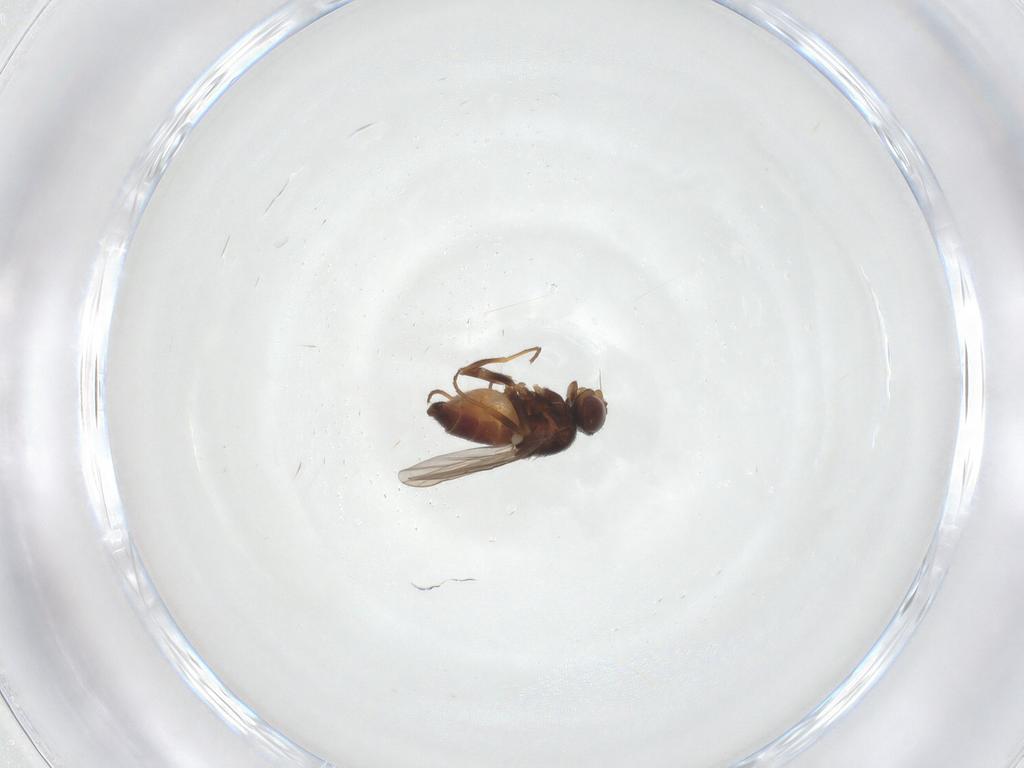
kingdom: Animalia
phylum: Arthropoda
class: Insecta
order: Diptera
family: Chloropidae
